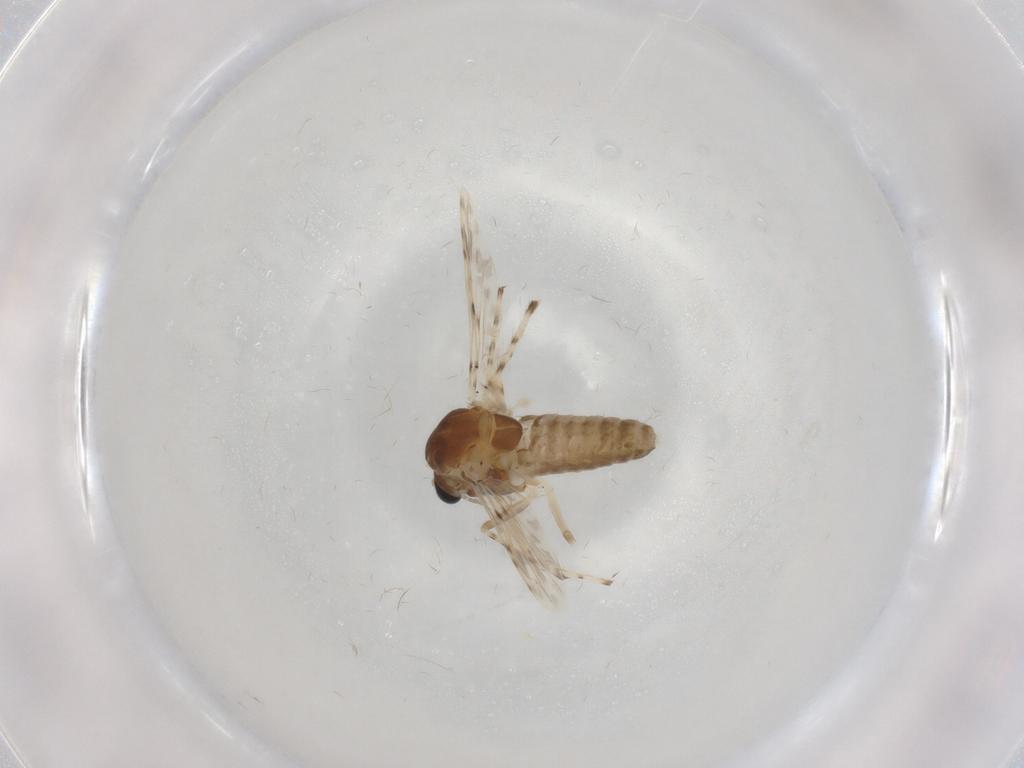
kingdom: Animalia
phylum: Arthropoda
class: Insecta
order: Diptera
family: Chironomidae
